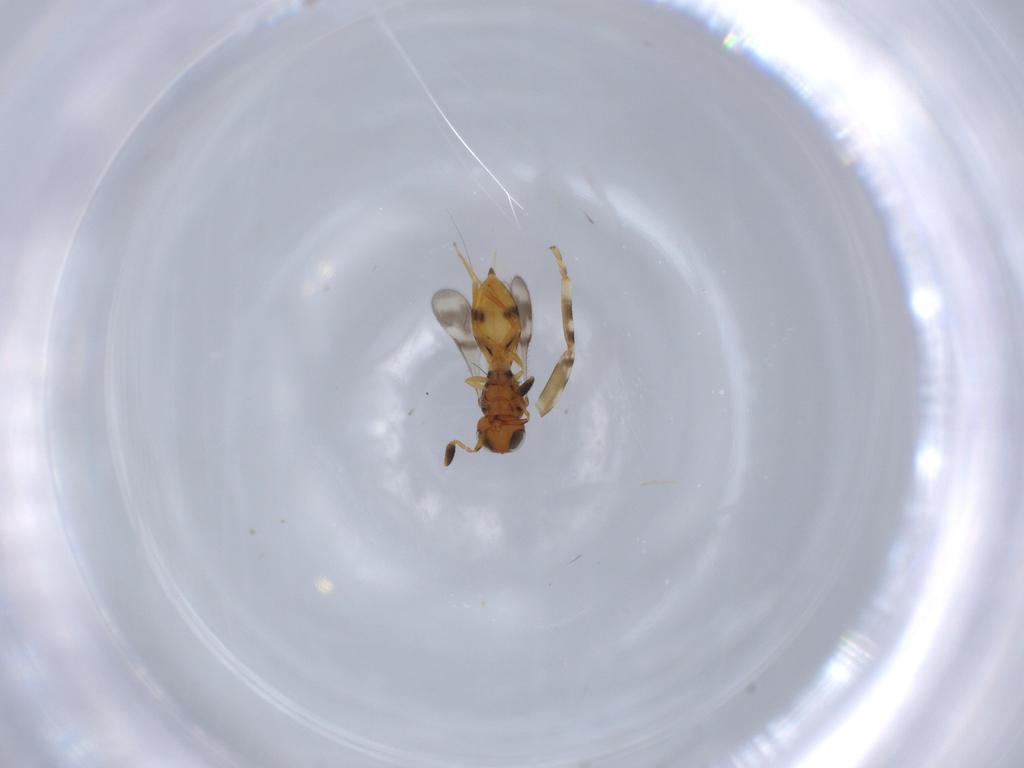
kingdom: Animalia
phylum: Arthropoda
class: Insecta
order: Hymenoptera
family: Scelionidae
